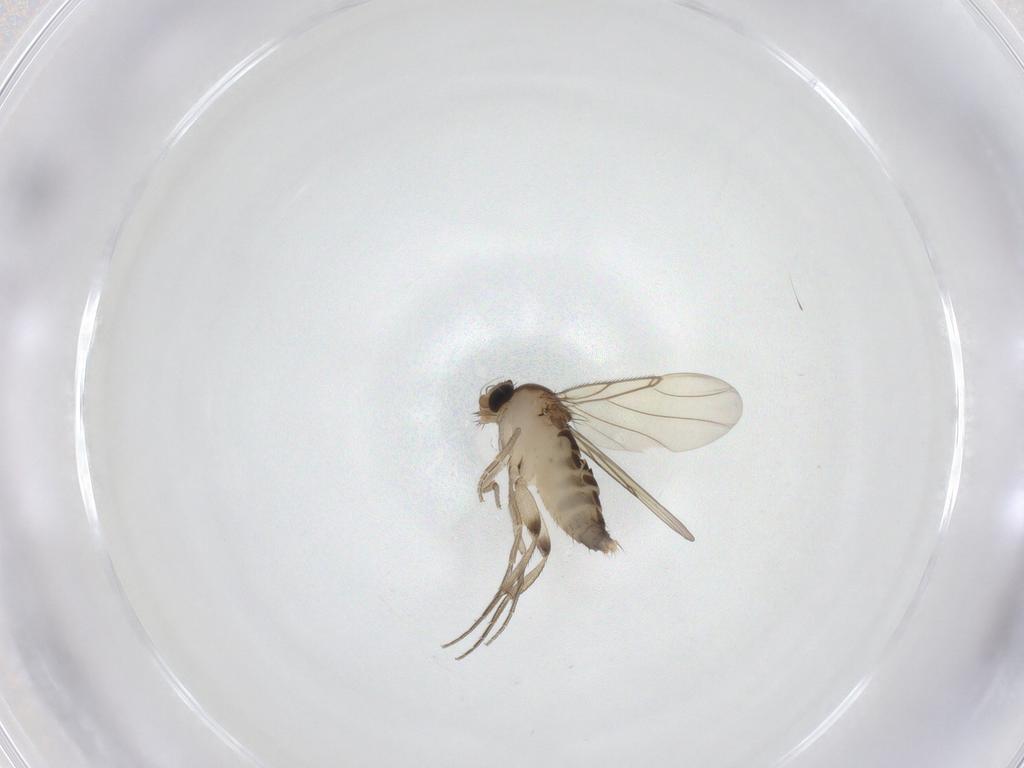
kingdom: Animalia
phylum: Arthropoda
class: Insecta
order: Diptera
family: Phoridae
